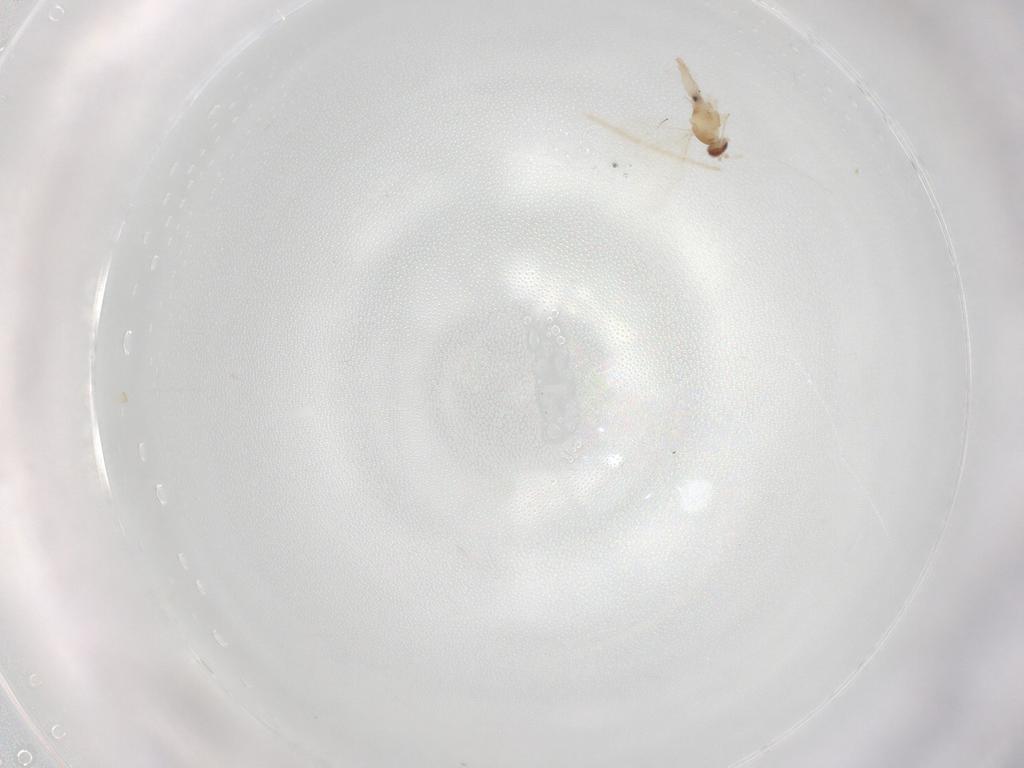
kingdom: Animalia
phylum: Arthropoda
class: Insecta
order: Diptera
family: Cecidomyiidae
